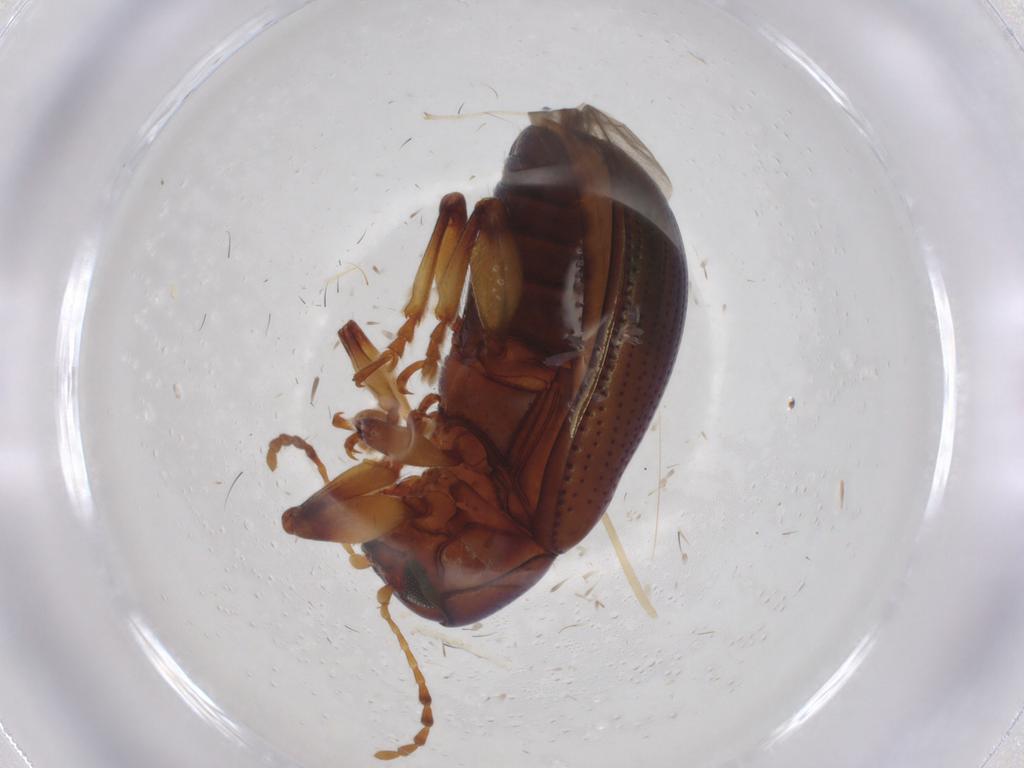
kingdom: Animalia
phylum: Arthropoda
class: Insecta
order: Coleoptera
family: Chrysomelidae
